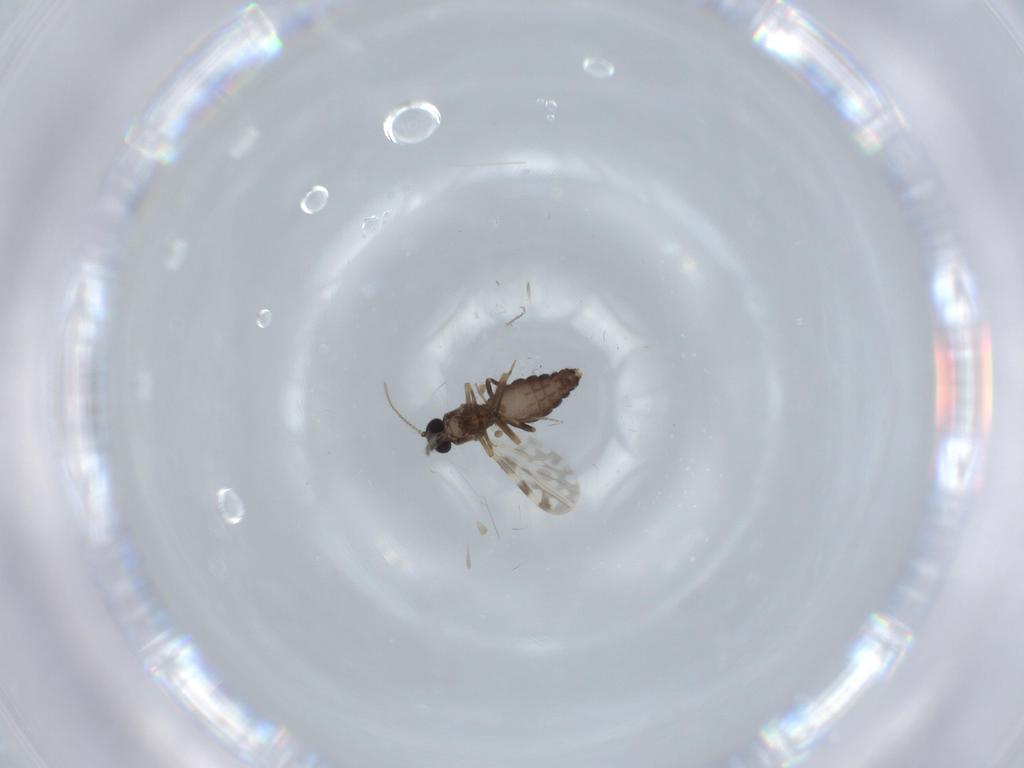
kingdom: Animalia
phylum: Arthropoda
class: Insecta
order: Diptera
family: Ceratopogonidae
